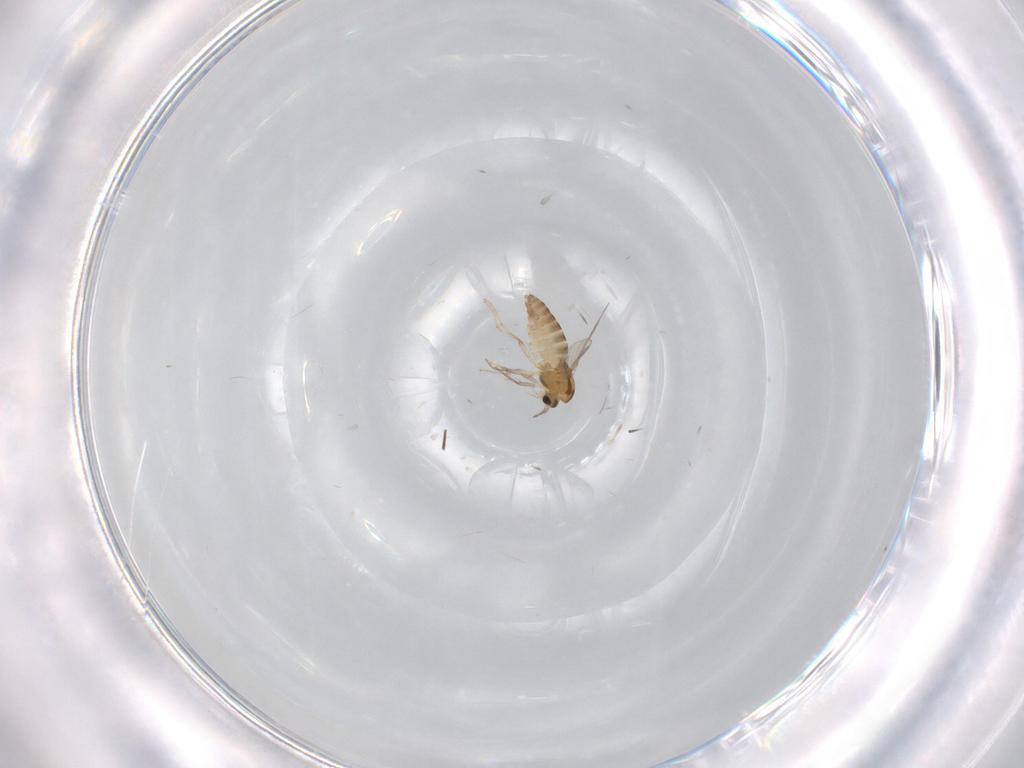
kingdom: Animalia
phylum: Arthropoda
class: Insecta
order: Diptera
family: Chironomidae
